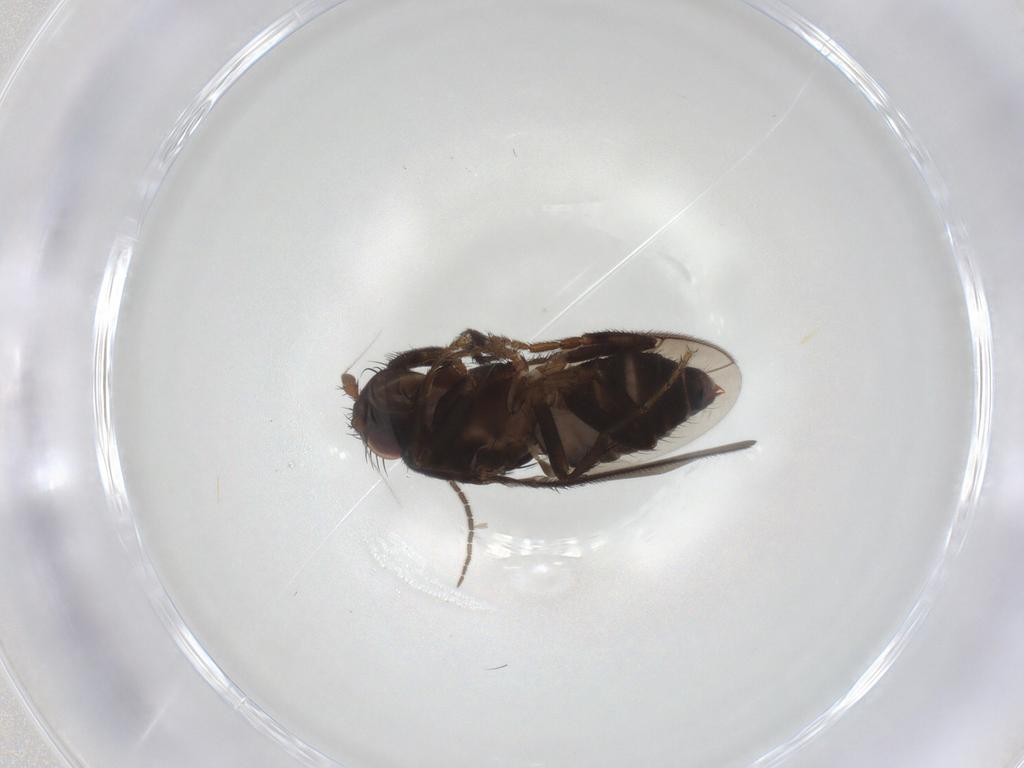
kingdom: Animalia
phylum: Arthropoda
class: Insecta
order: Diptera
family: Sciaridae
